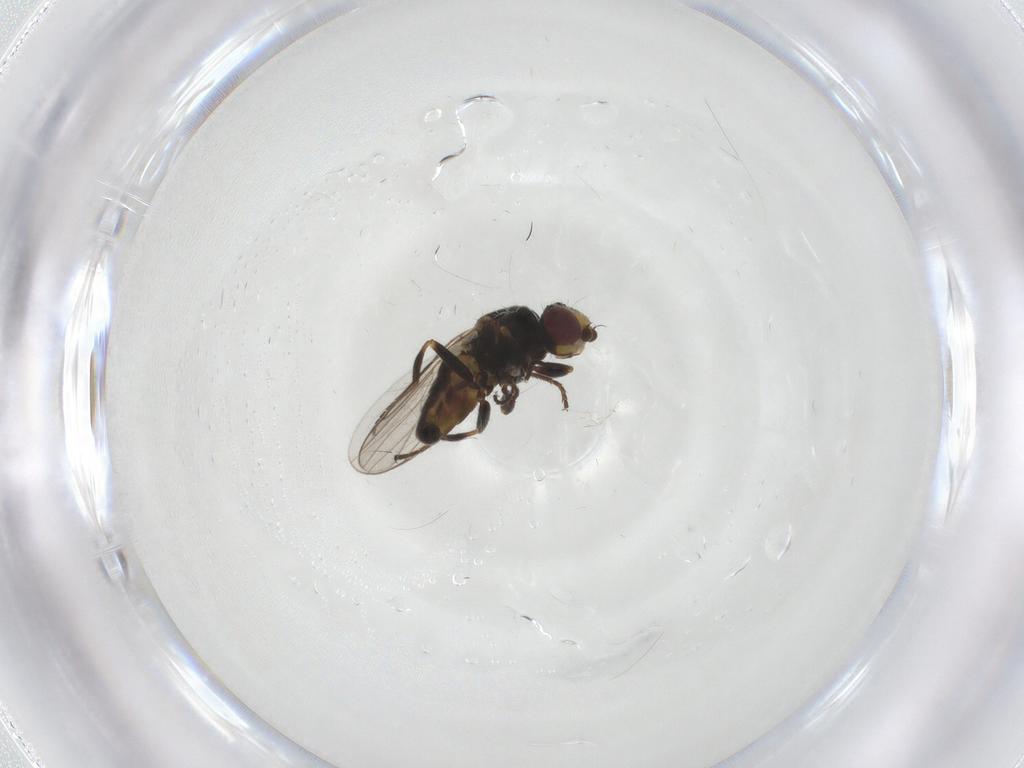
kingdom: Animalia
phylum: Arthropoda
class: Insecta
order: Diptera
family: Chloropidae
